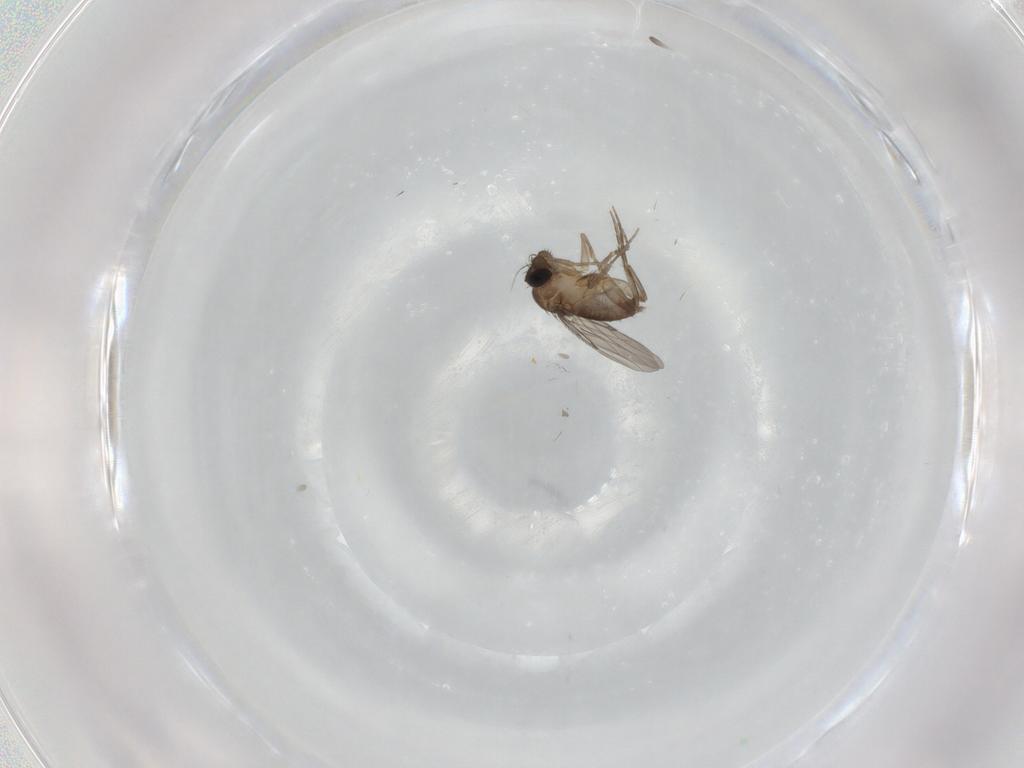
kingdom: Animalia
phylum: Arthropoda
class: Insecta
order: Diptera
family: Phoridae
